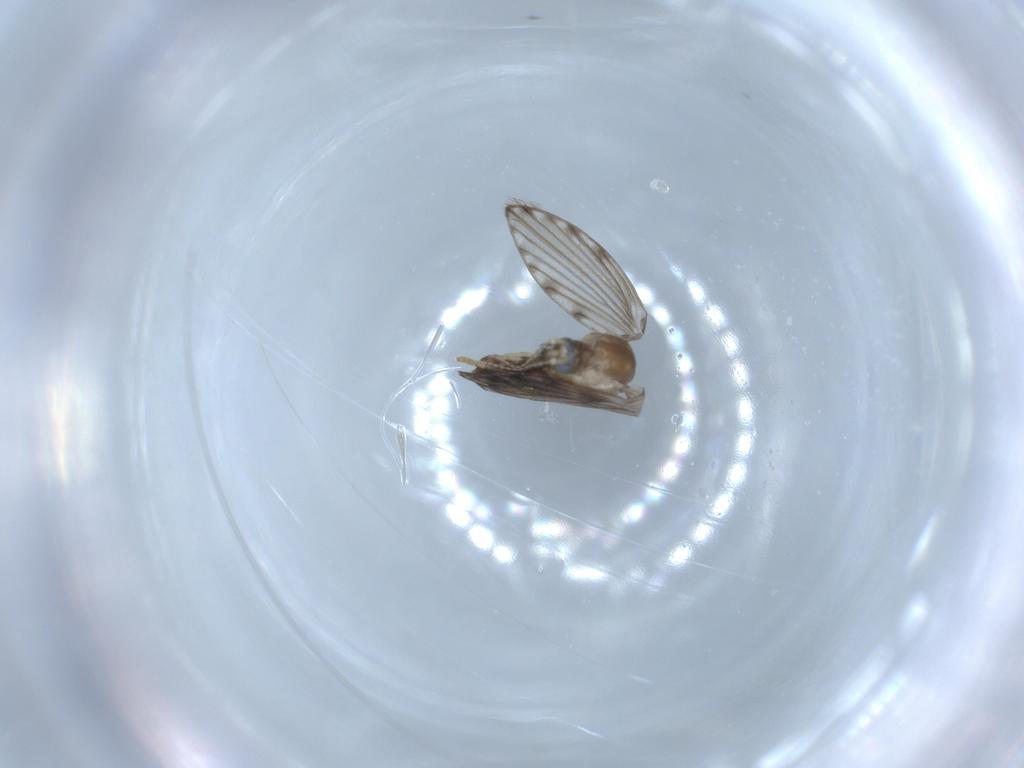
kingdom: Animalia
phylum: Arthropoda
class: Insecta
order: Diptera
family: Psychodidae
